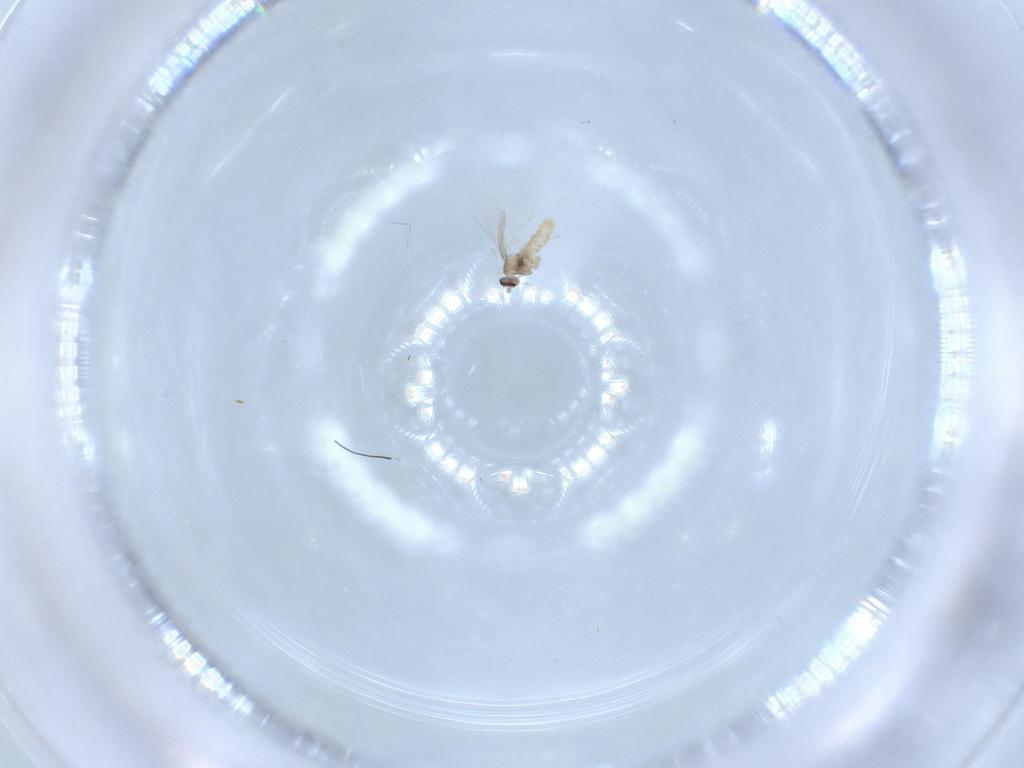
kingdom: Animalia
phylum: Arthropoda
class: Insecta
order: Diptera
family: Cecidomyiidae
